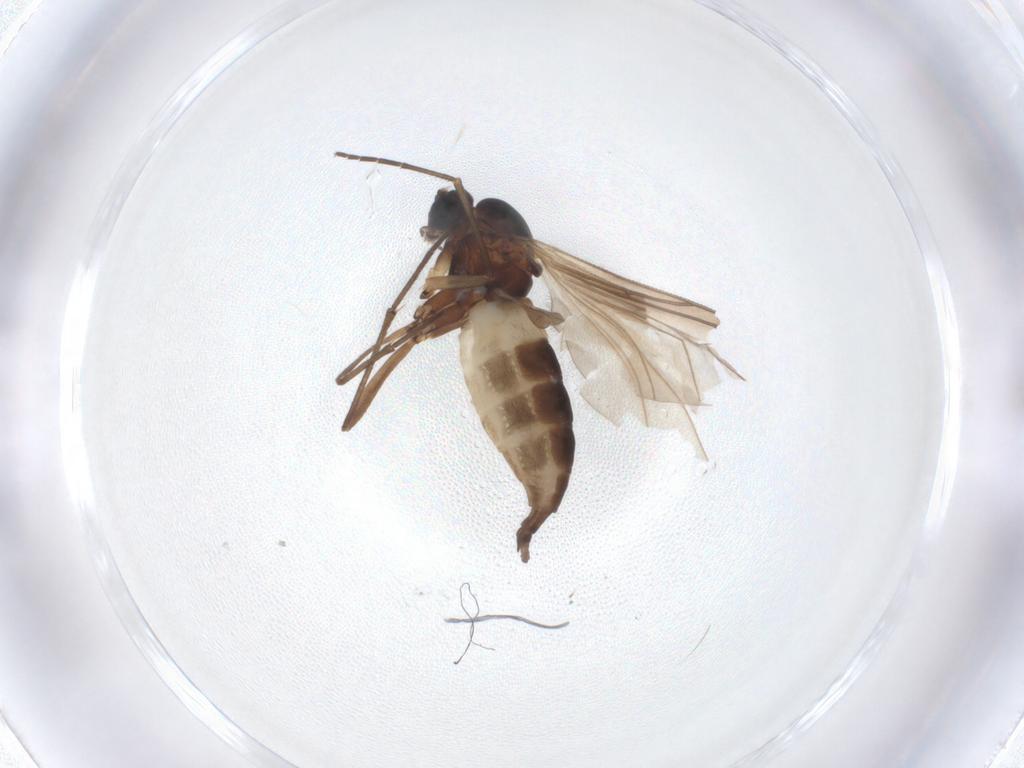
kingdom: Animalia
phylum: Arthropoda
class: Insecta
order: Diptera
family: Sciaridae
